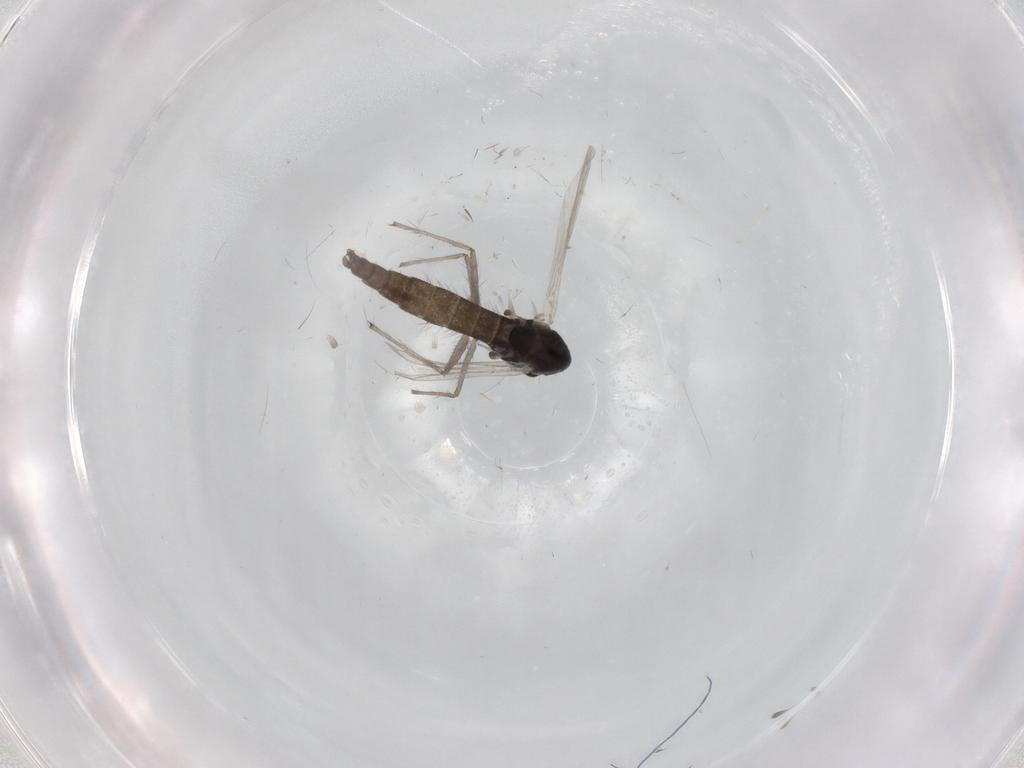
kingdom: Animalia
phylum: Arthropoda
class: Insecta
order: Diptera
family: Chironomidae
